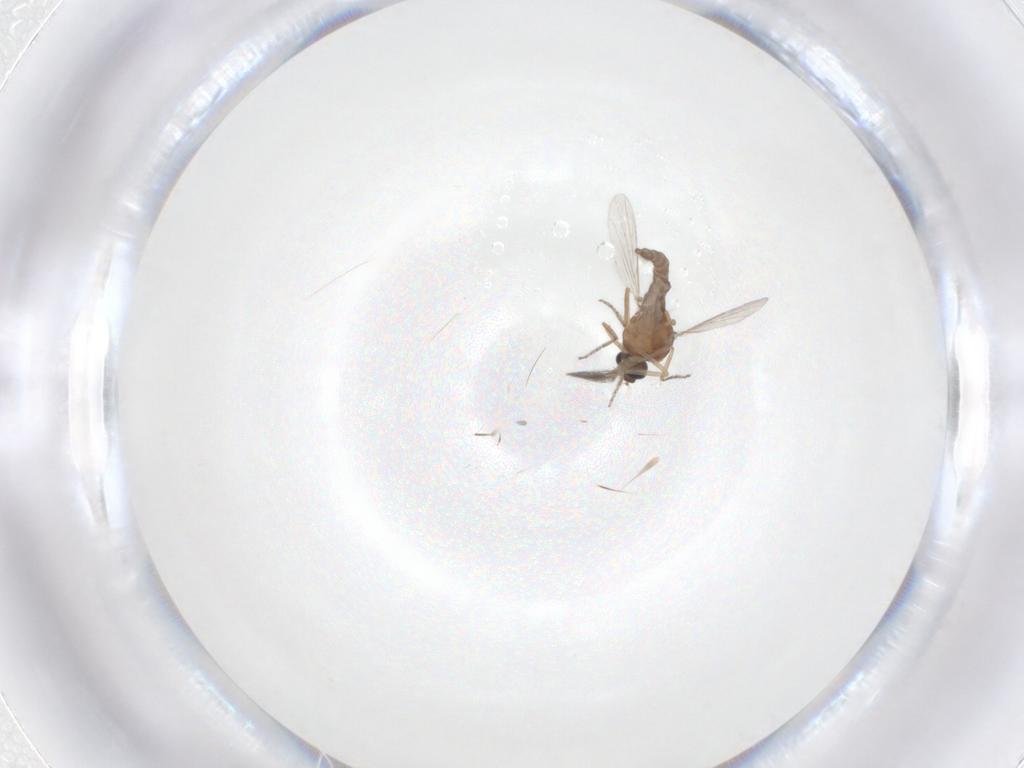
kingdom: Animalia
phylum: Arthropoda
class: Insecta
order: Diptera
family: Ceratopogonidae
